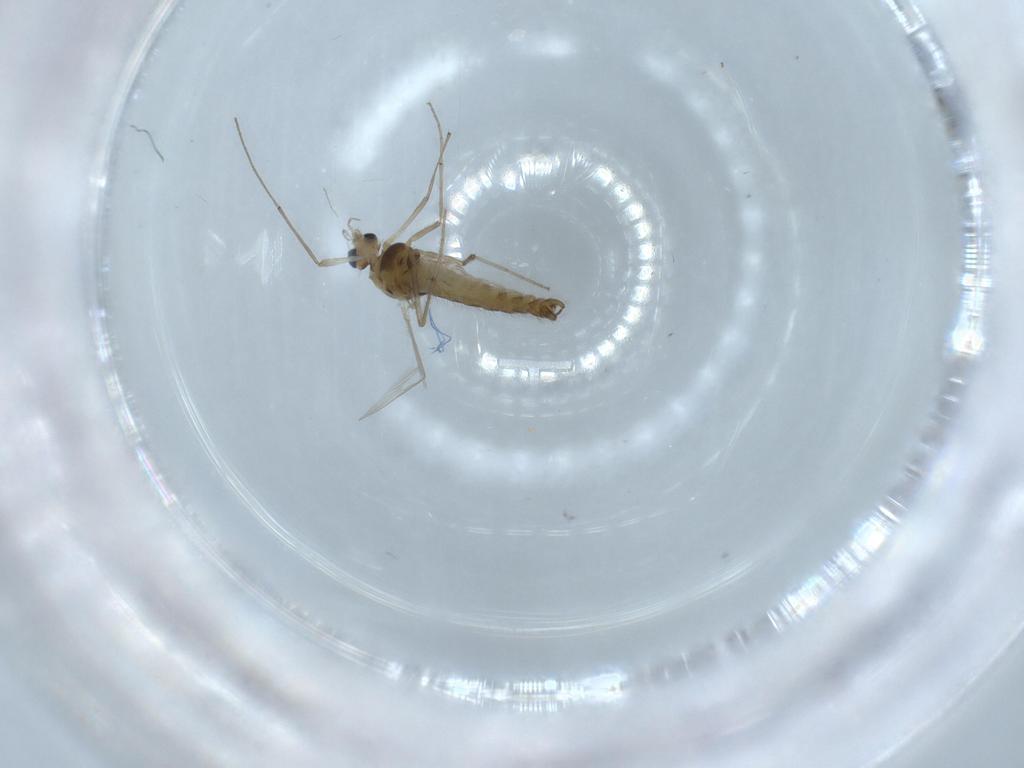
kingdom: Animalia
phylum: Arthropoda
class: Insecta
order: Diptera
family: Chironomidae
